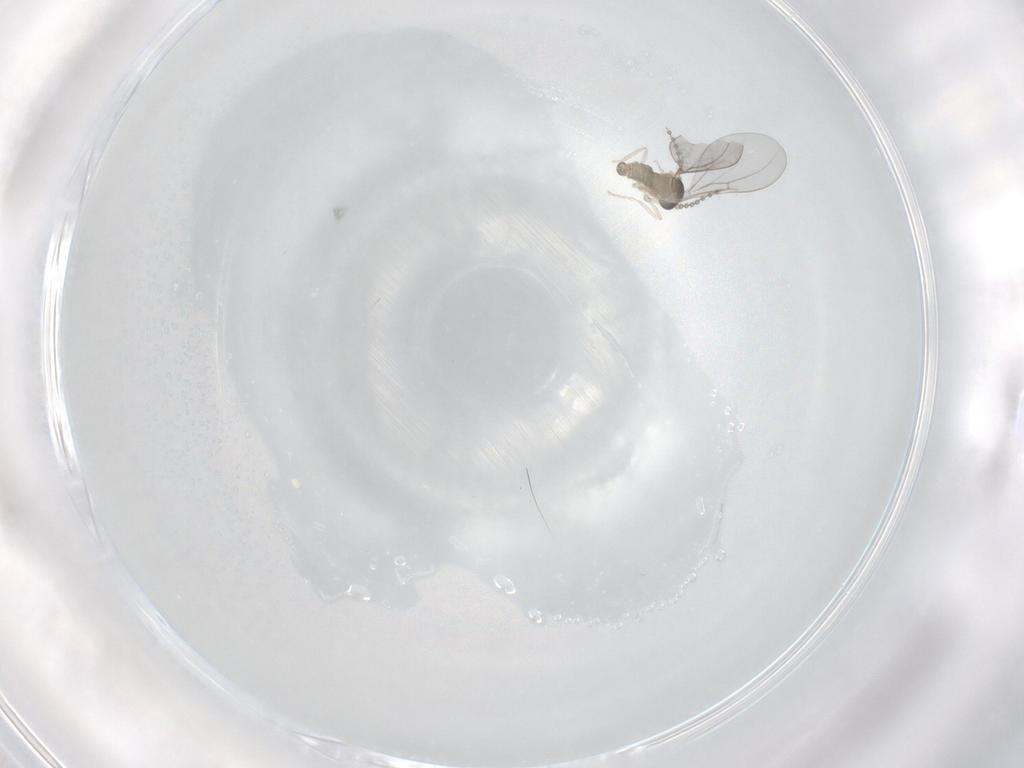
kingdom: Animalia
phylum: Arthropoda
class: Insecta
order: Diptera
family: Cecidomyiidae
